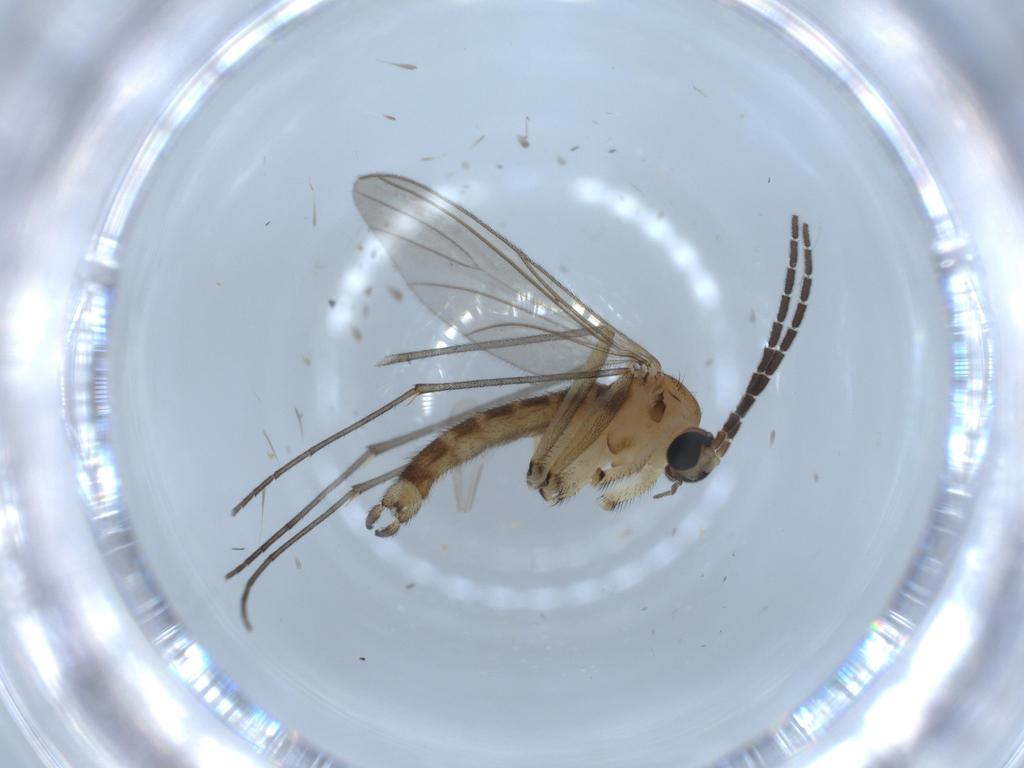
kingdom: Animalia
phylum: Arthropoda
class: Insecta
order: Diptera
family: Sciaridae
